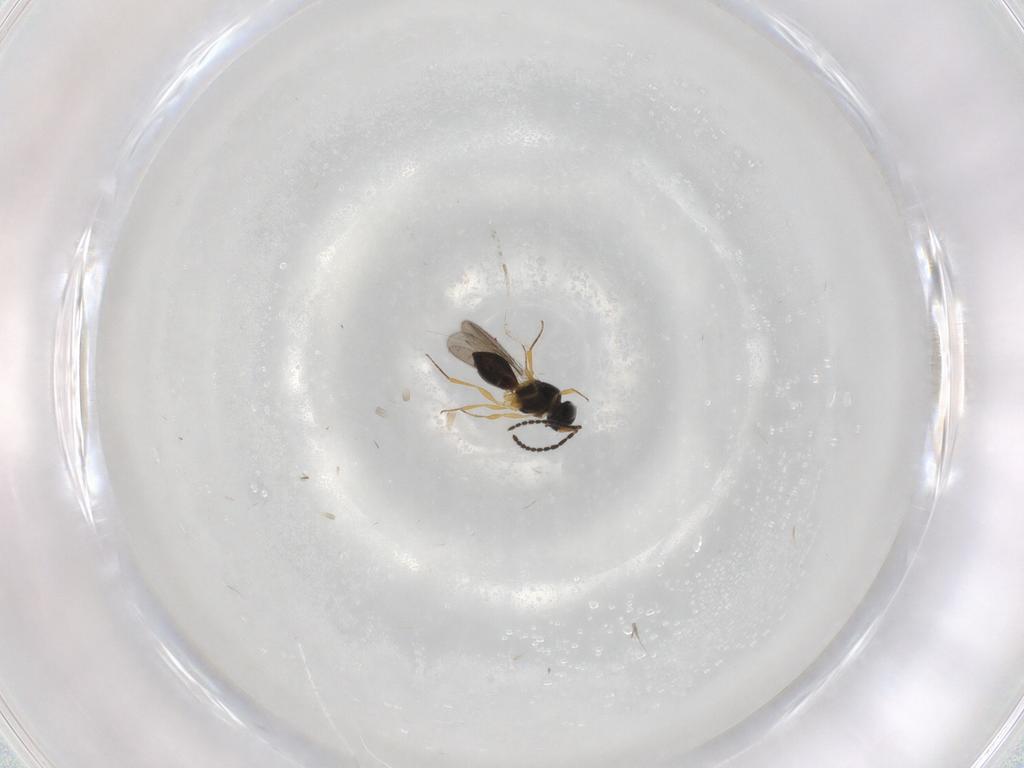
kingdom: Animalia
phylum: Arthropoda
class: Insecta
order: Hymenoptera
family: Scelionidae
